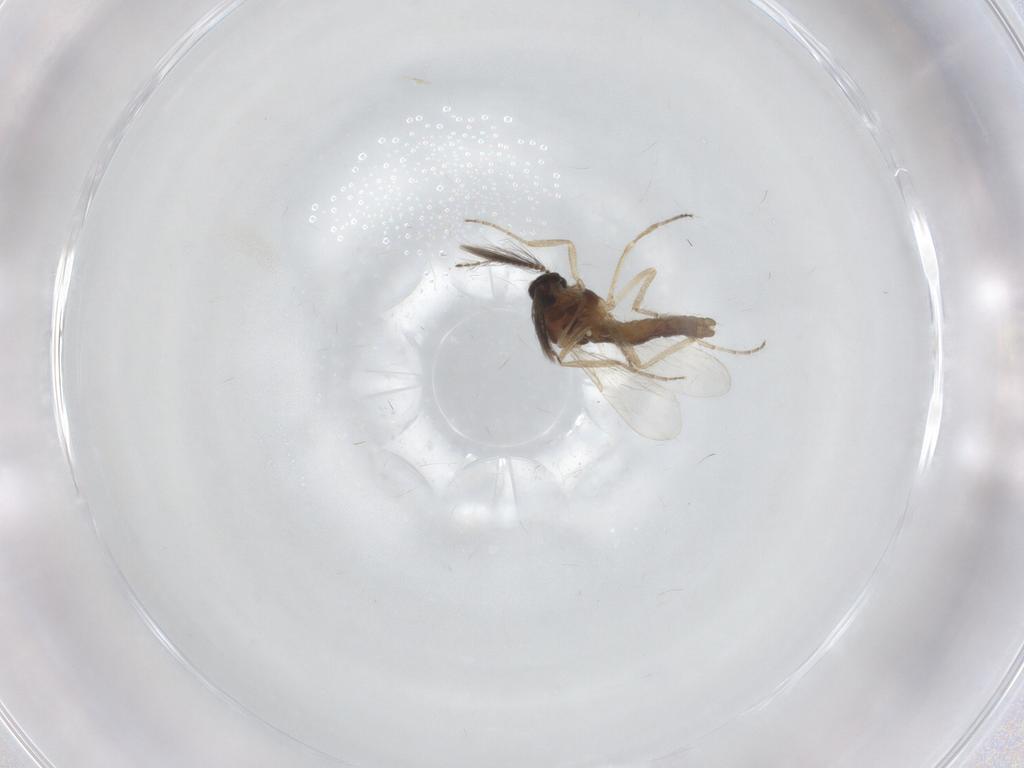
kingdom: Animalia
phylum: Arthropoda
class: Insecta
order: Diptera
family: Ceratopogonidae
